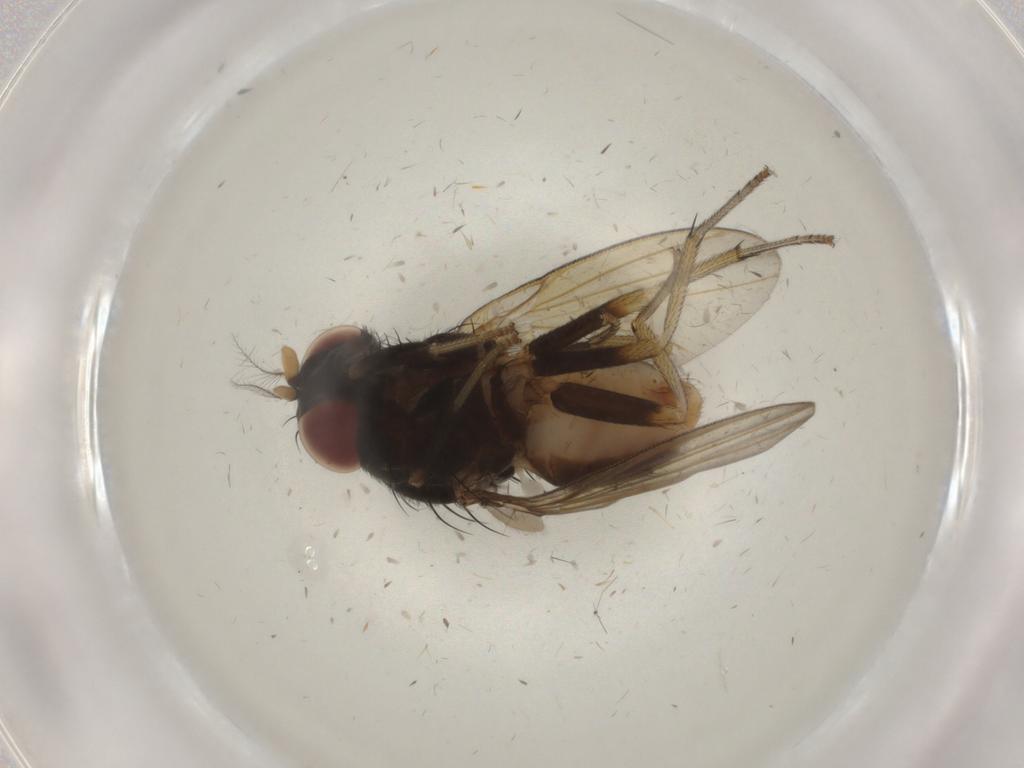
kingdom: Animalia
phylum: Arthropoda
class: Insecta
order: Diptera
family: Lauxaniidae
